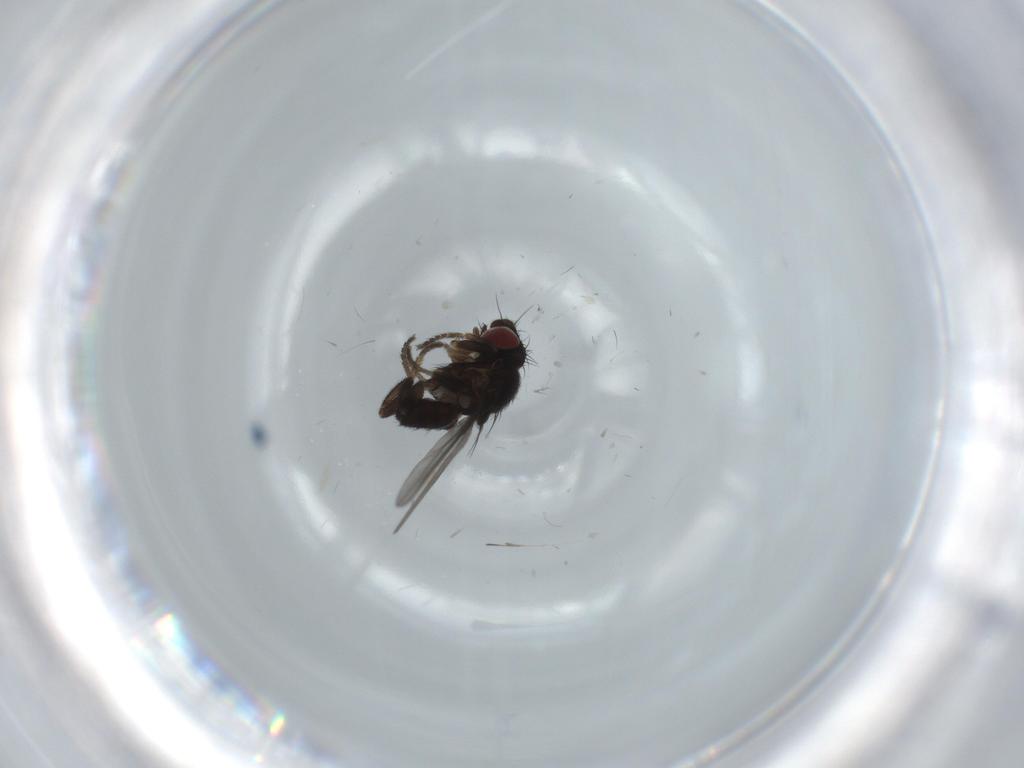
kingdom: Animalia
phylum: Arthropoda
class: Insecta
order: Diptera
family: Milichiidae
